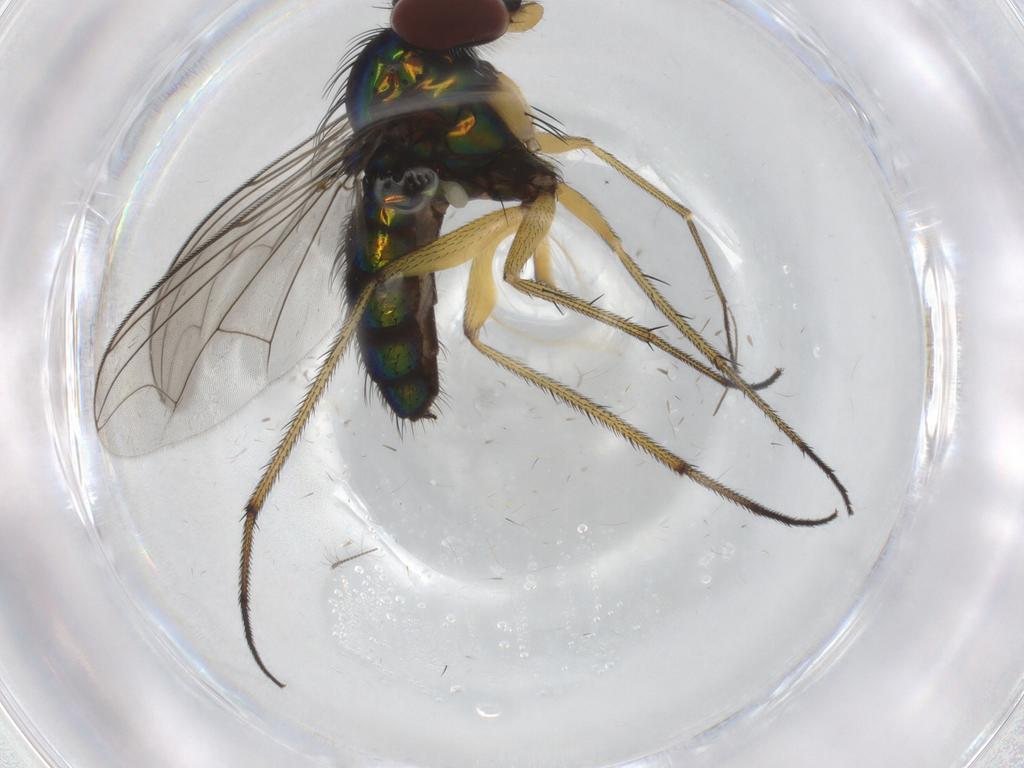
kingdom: Animalia
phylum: Arthropoda
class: Insecta
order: Diptera
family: Dolichopodidae
